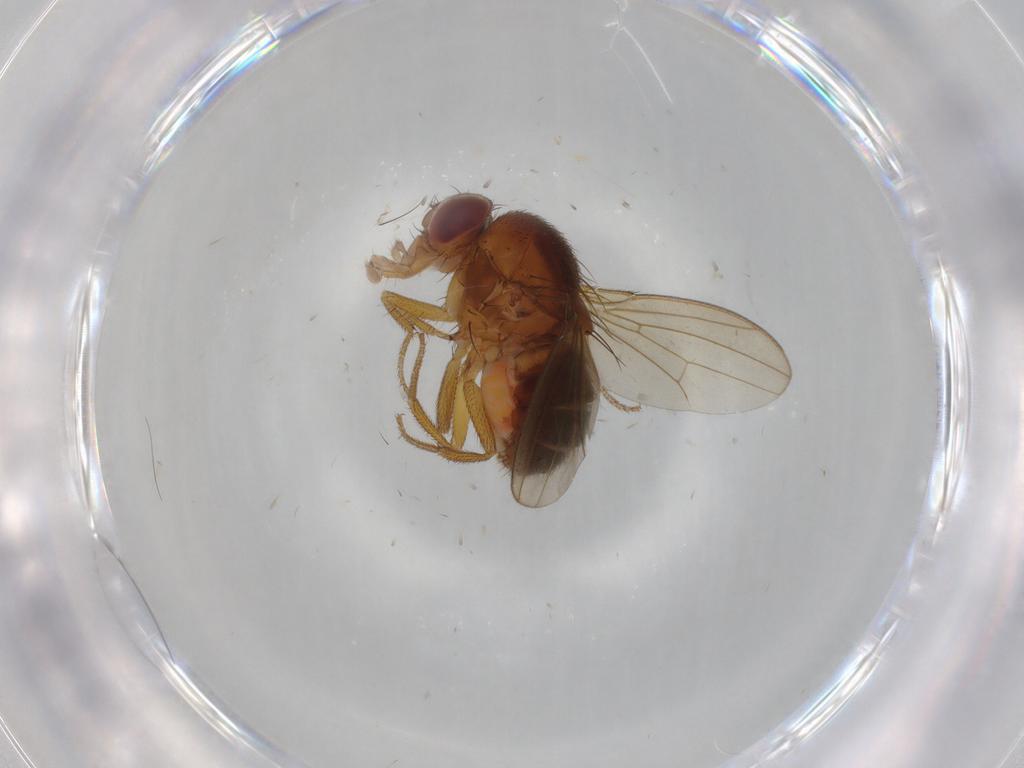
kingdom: Animalia
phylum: Arthropoda
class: Insecta
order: Diptera
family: Drosophilidae
